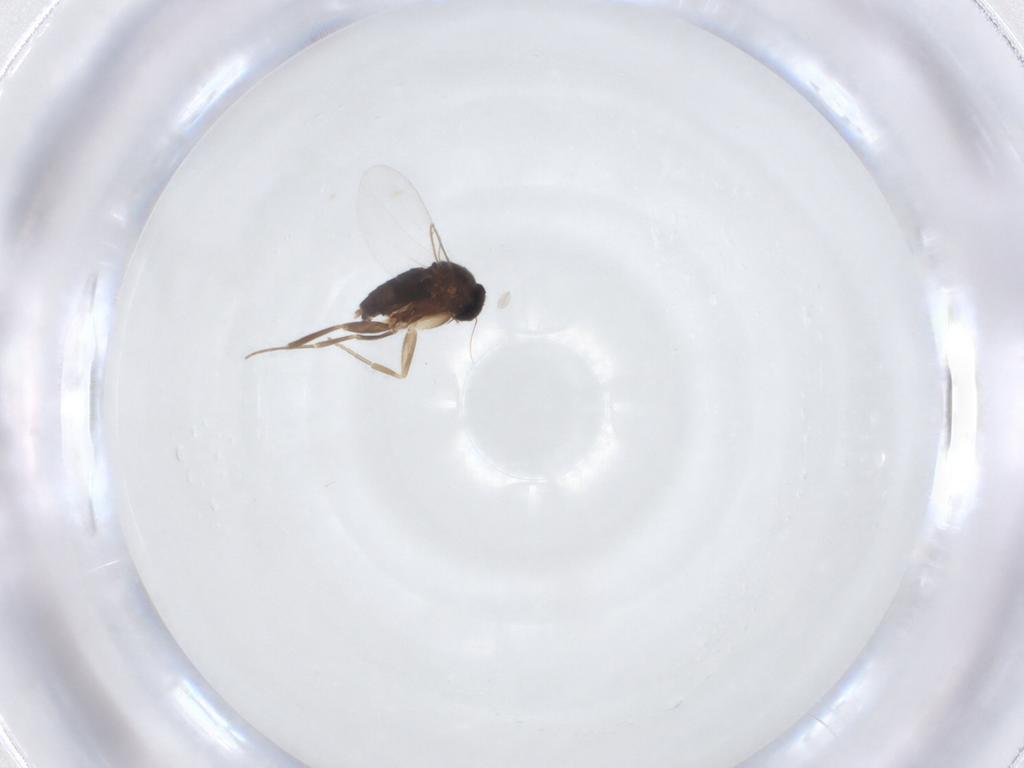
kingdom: Animalia
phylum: Arthropoda
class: Insecta
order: Diptera
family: Phoridae
